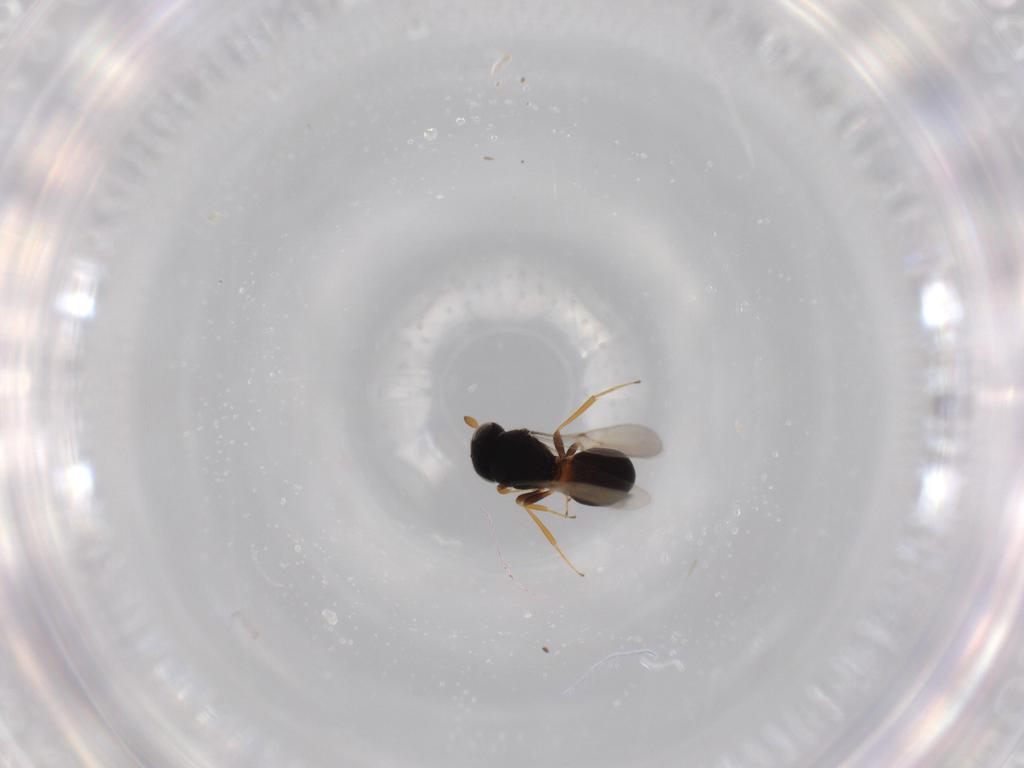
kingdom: Animalia
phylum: Arthropoda
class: Insecta
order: Hymenoptera
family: Scelionidae
